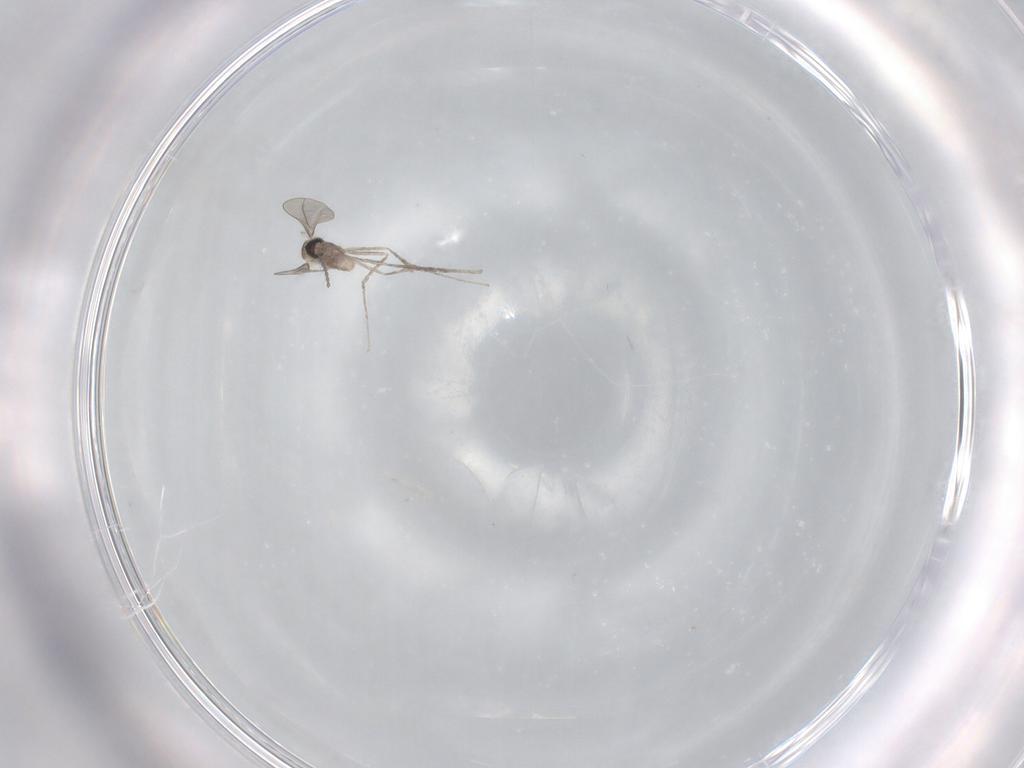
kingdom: Animalia
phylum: Arthropoda
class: Insecta
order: Diptera
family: Cecidomyiidae
